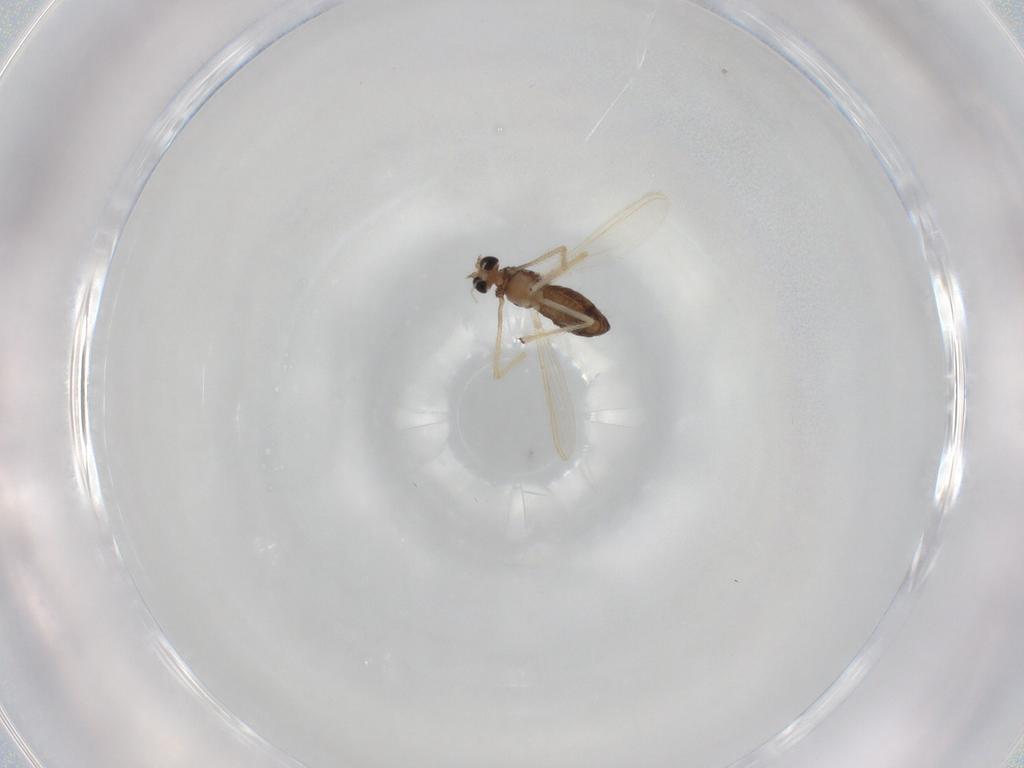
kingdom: Animalia
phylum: Arthropoda
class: Insecta
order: Diptera
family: Chironomidae
